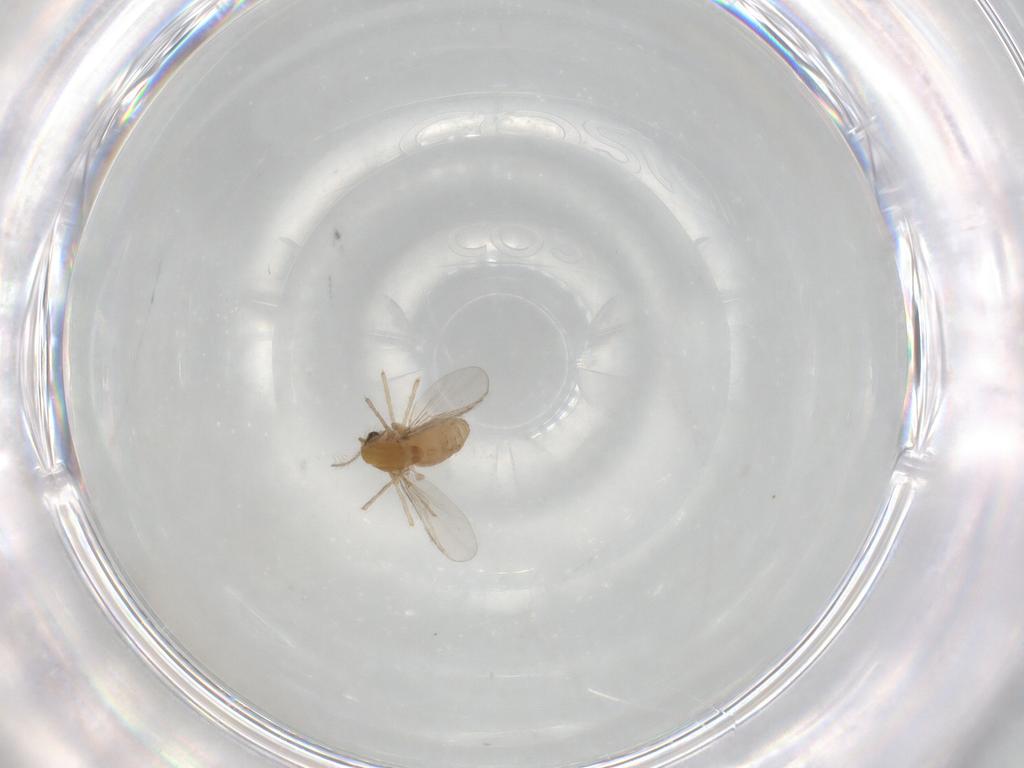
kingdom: Animalia
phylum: Arthropoda
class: Insecta
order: Diptera
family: Chironomidae
